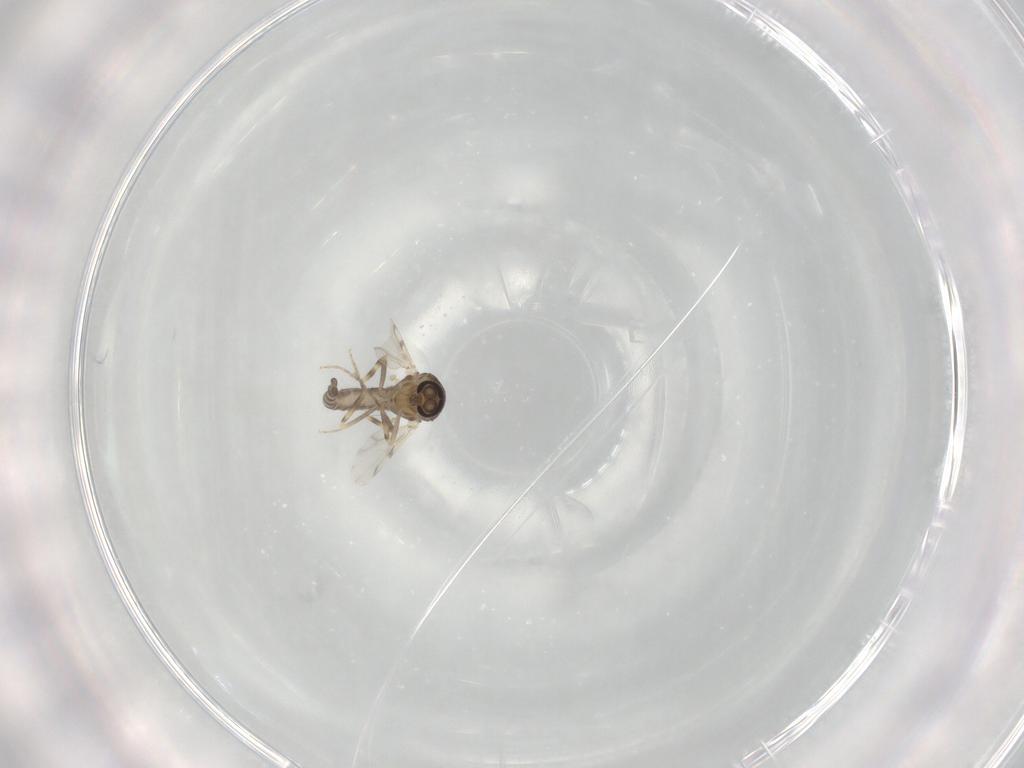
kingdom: Animalia
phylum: Arthropoda
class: Insecta
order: Diptera
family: Ceratopogonidae
